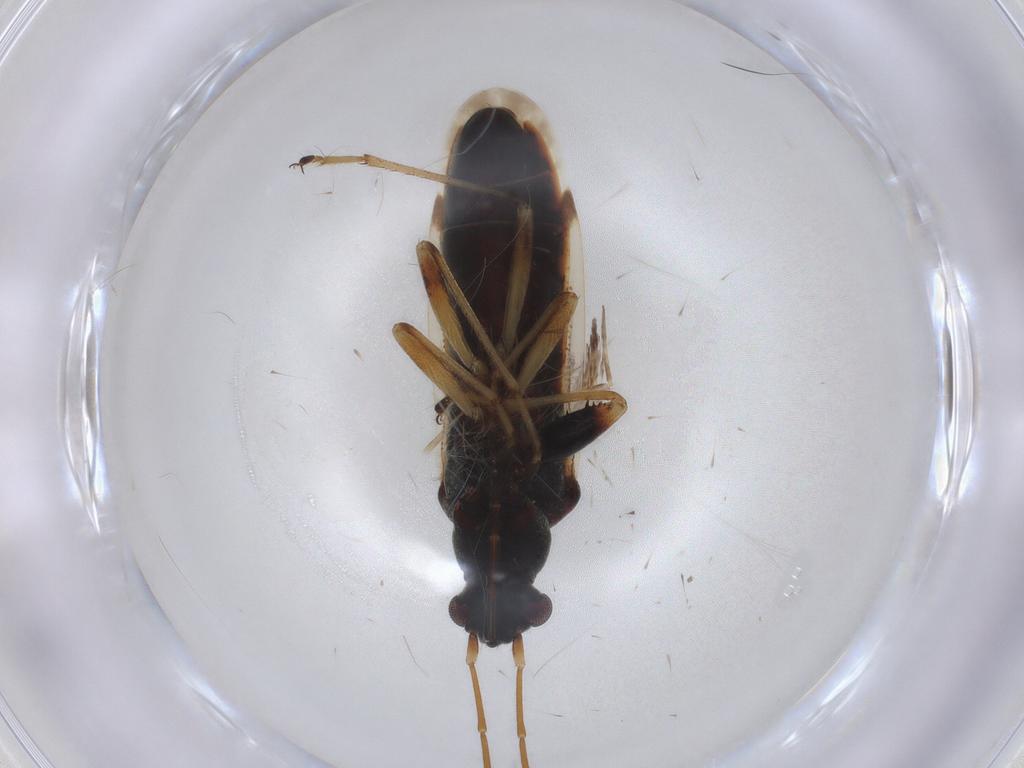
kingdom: Animalia
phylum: Arthropoda
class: Insecta
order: Hemiptera
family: Rhyparochromidae
